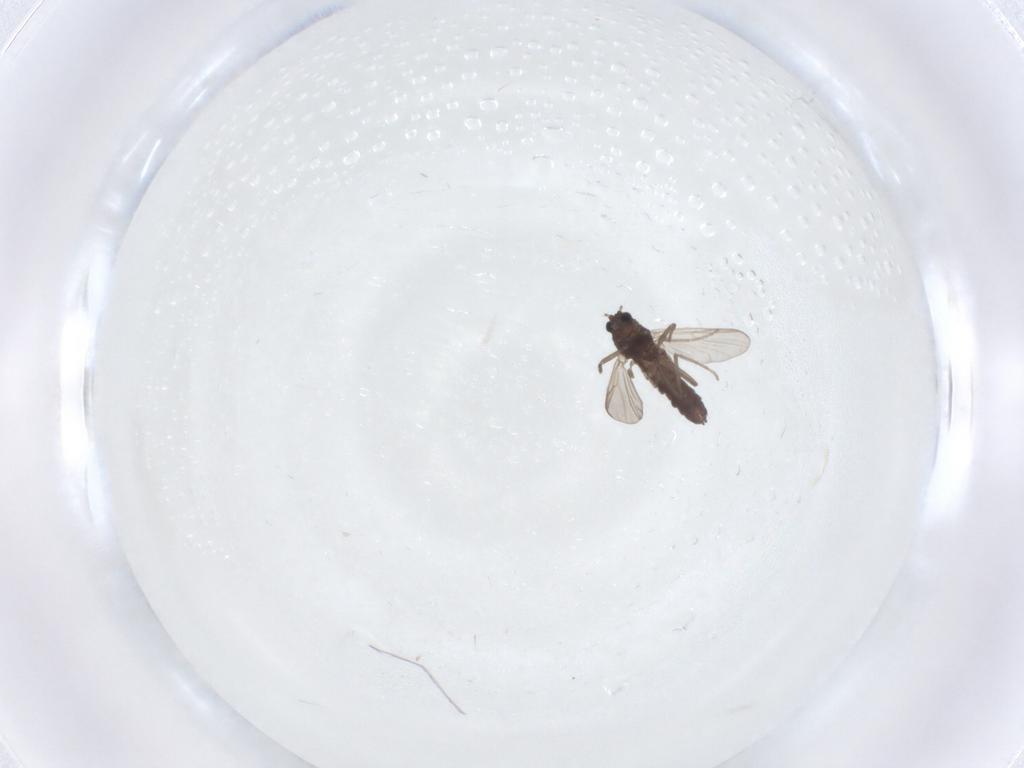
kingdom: Animalia
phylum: Arthropoda
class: Insecta
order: Diptera
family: Chironomidae
